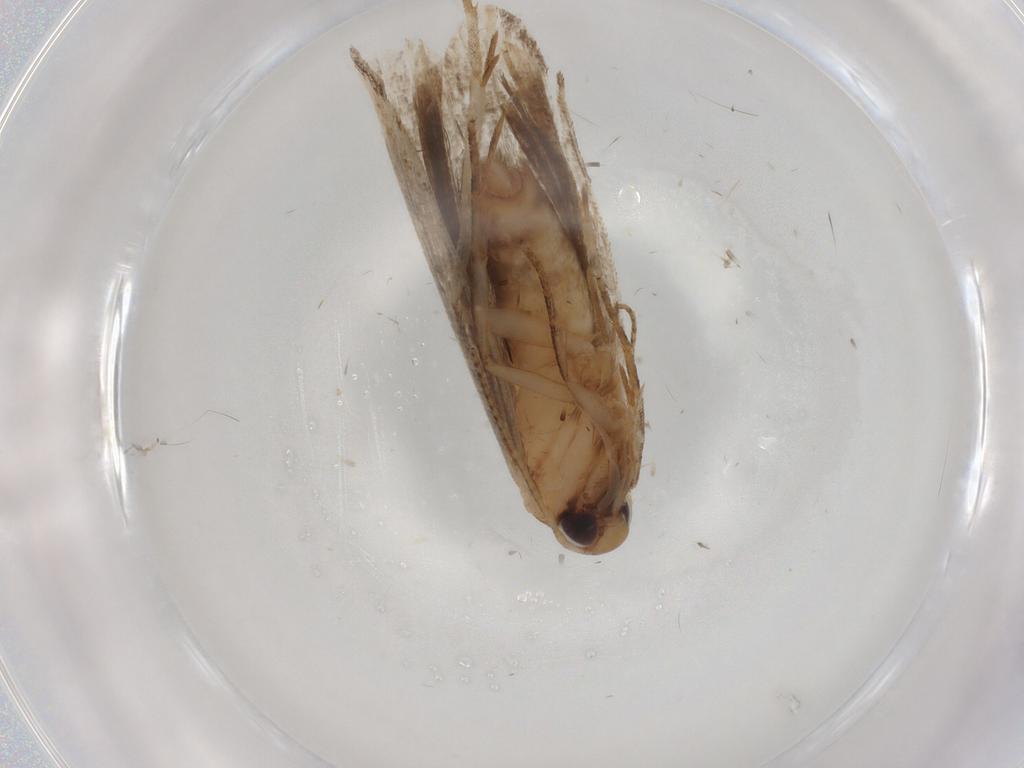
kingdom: Animalia
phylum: Arthropoda
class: Insecta
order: Lepidoptera
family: Gelechiidae
